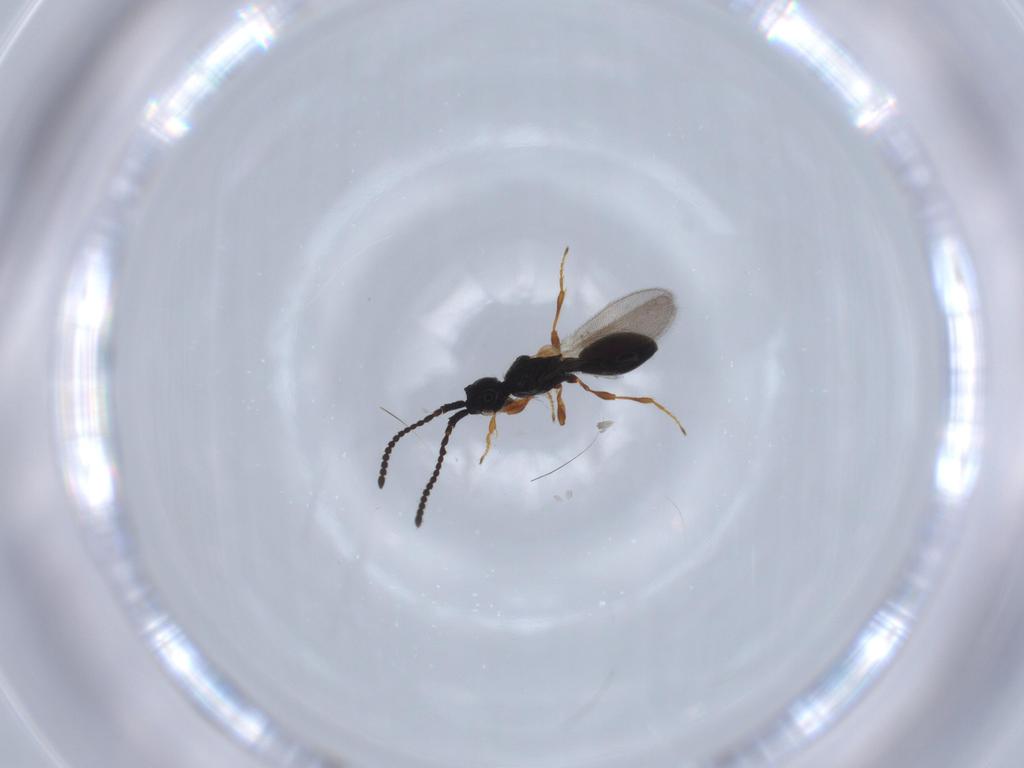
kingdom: Animalia
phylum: Arthropoda
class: Insecta
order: Hymenoptera
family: Diapriidae
